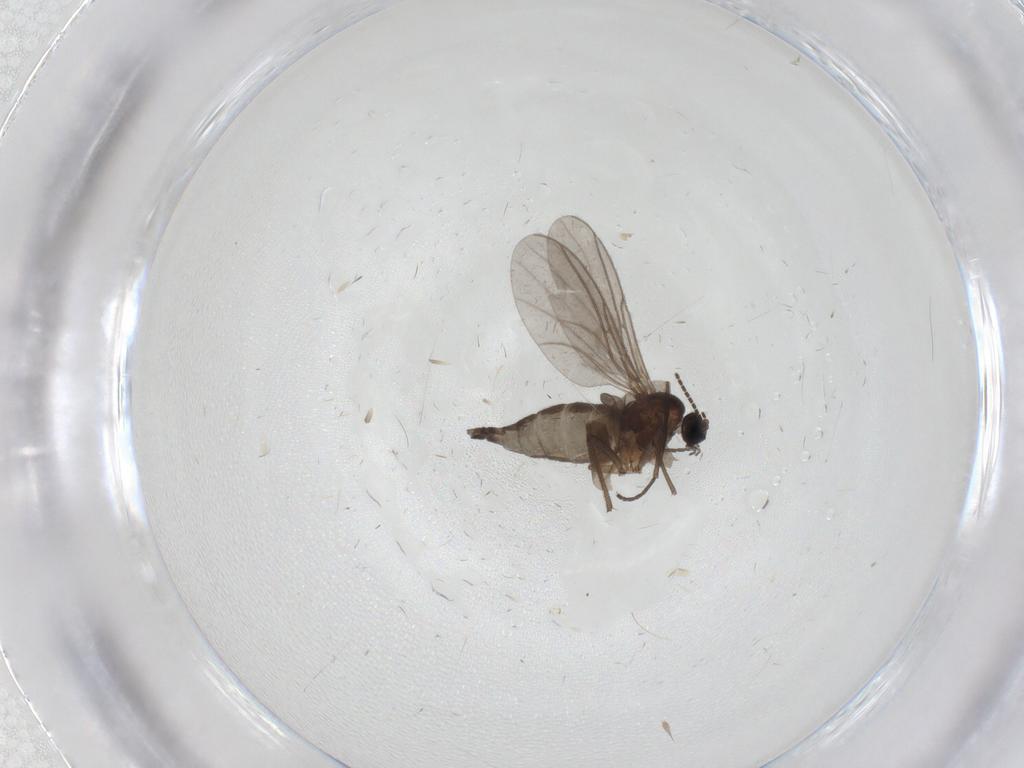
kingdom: Animalia
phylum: Arthropoda
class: Insecta
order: Diptera
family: Sciaridae
